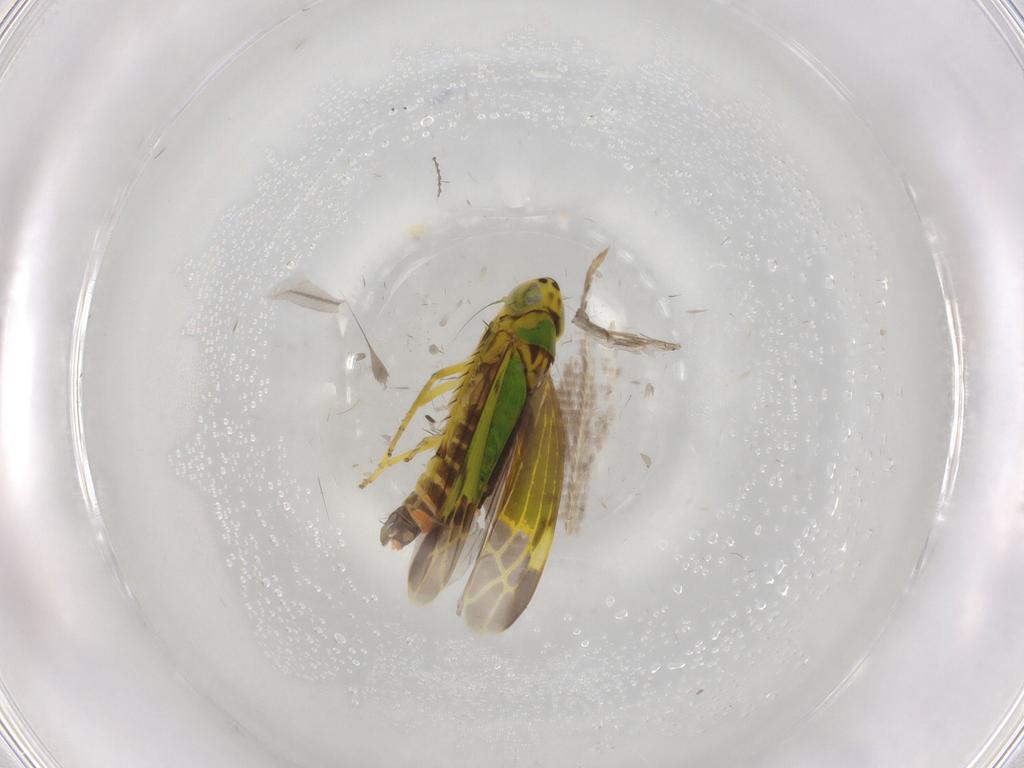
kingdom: Animalia
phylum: Arthropoda
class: Insecta
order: Hemiptera
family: Cicadellidae
